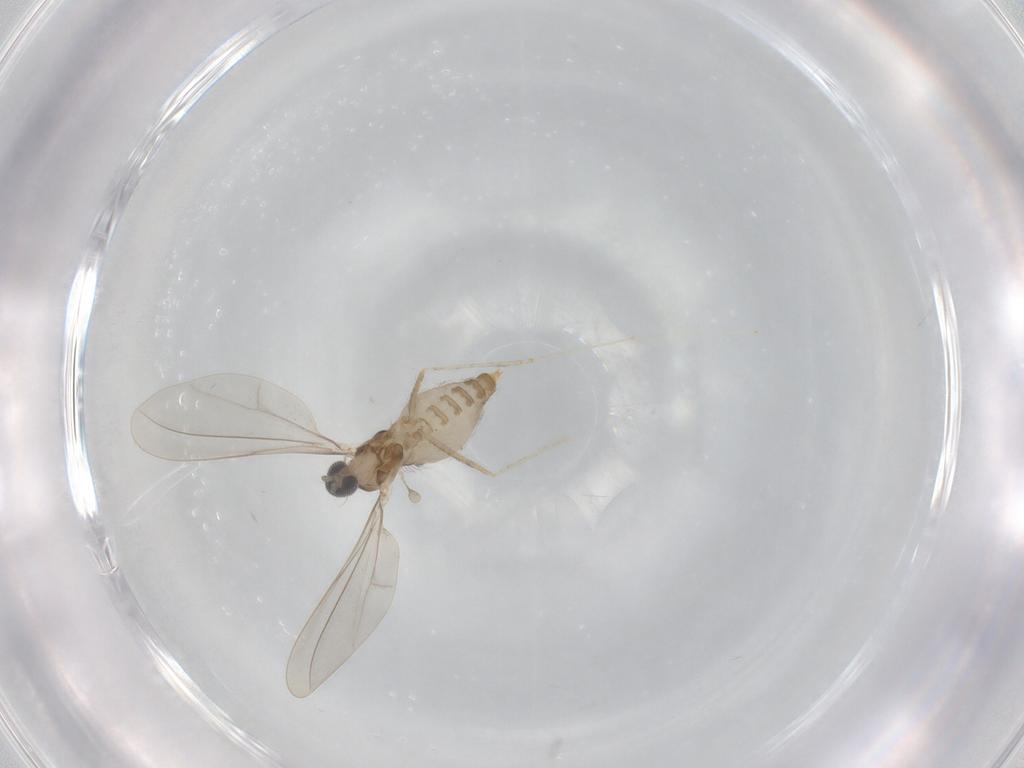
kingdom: Animalia
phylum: Arthropoda
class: Insecta
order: Diptera
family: Cecidomyiidae
